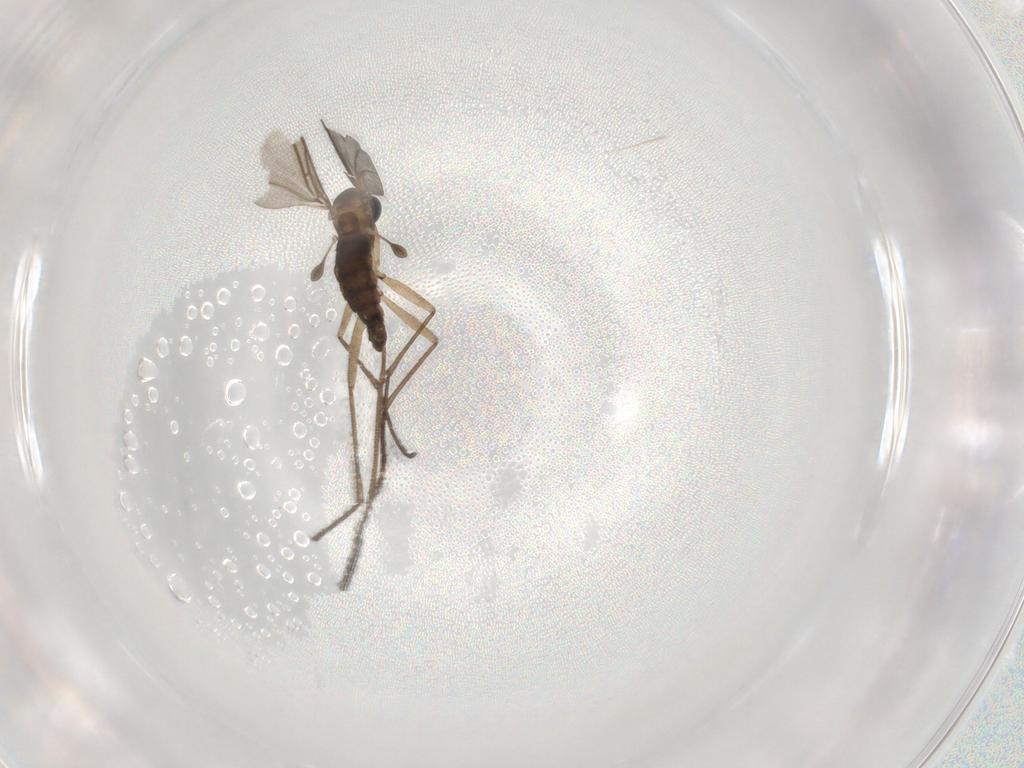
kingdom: Animalia
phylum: Arthropoda
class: Insecta
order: Diptera
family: Sciaridae
